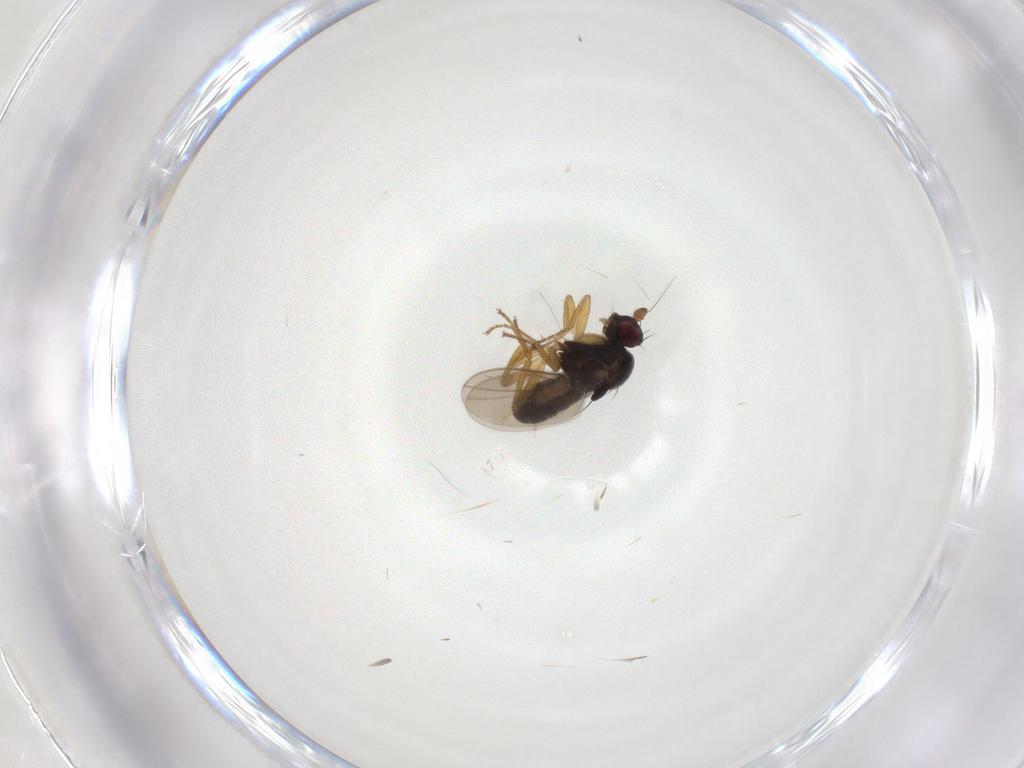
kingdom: Animalia
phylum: Arthropoda
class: Insecta
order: Diptera
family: Sphaeroceridae
